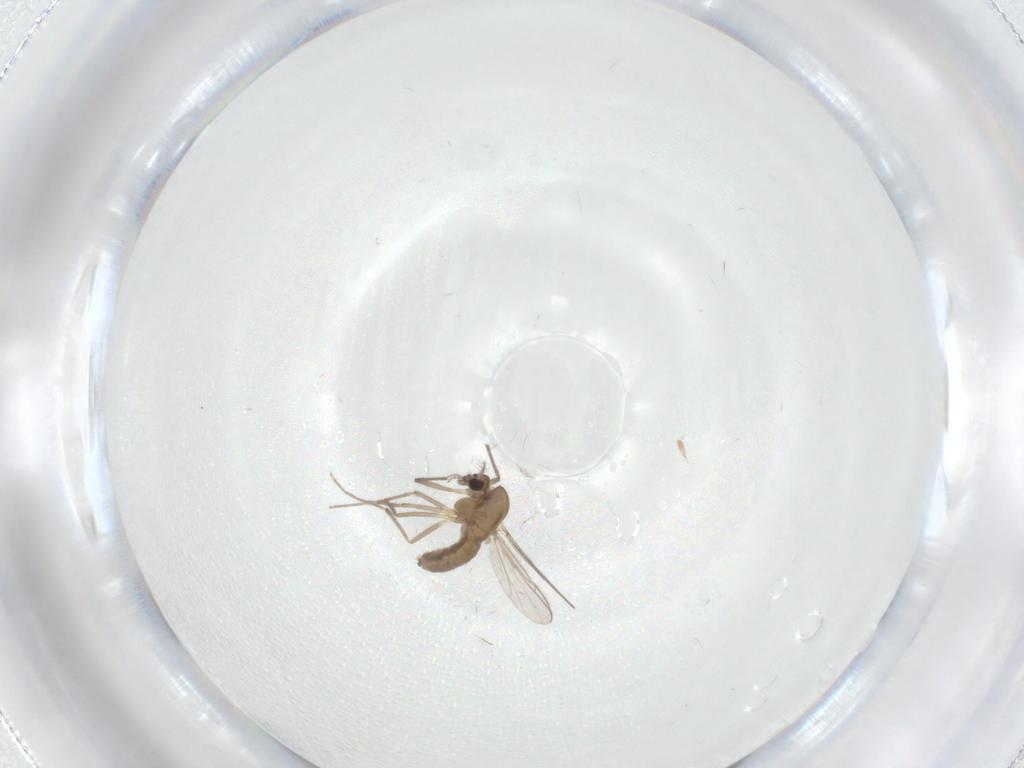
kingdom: Animalia
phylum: Arthropoda
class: Insecta
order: Diptera
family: Chironomidae
